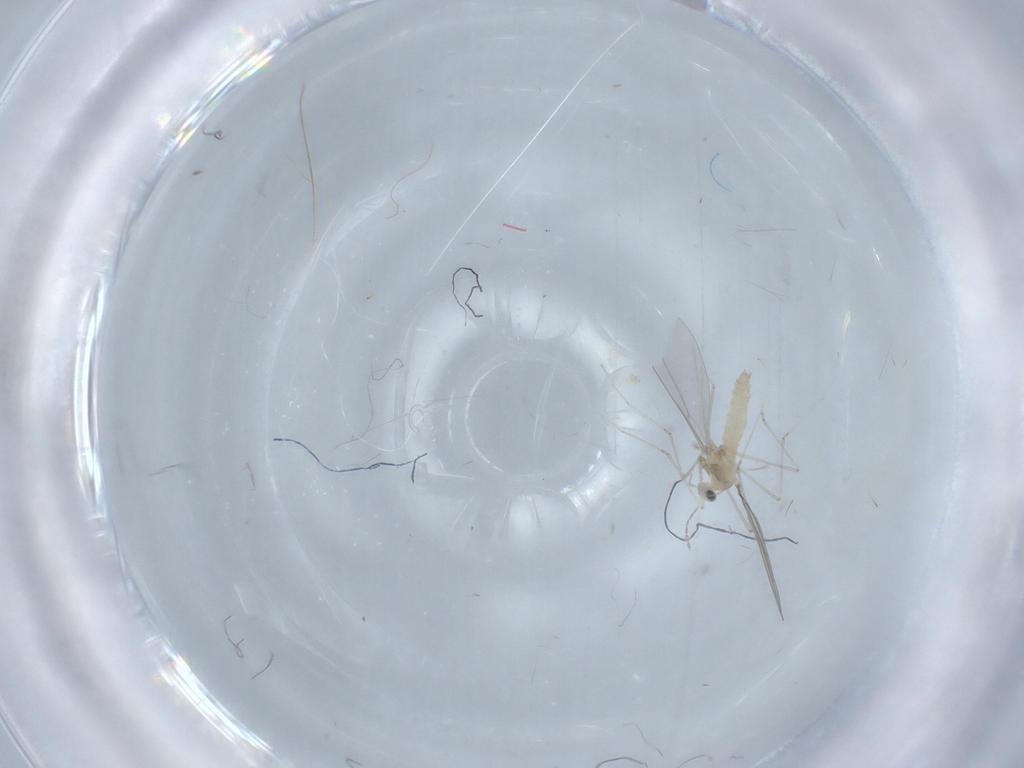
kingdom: Animalia
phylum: Arthropoda
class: Insecta
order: Diptera
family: Cecidomyiidae
